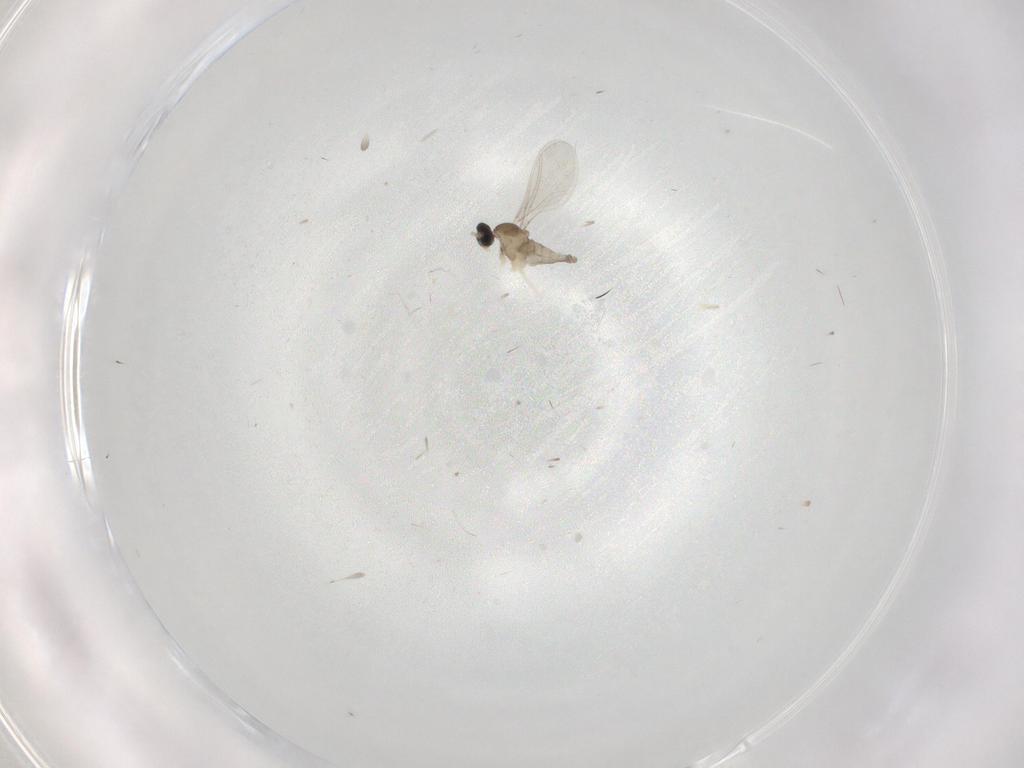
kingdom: Animalia
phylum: Arthropoda
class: Insecta
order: Diptera
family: Cecidomyiidae
